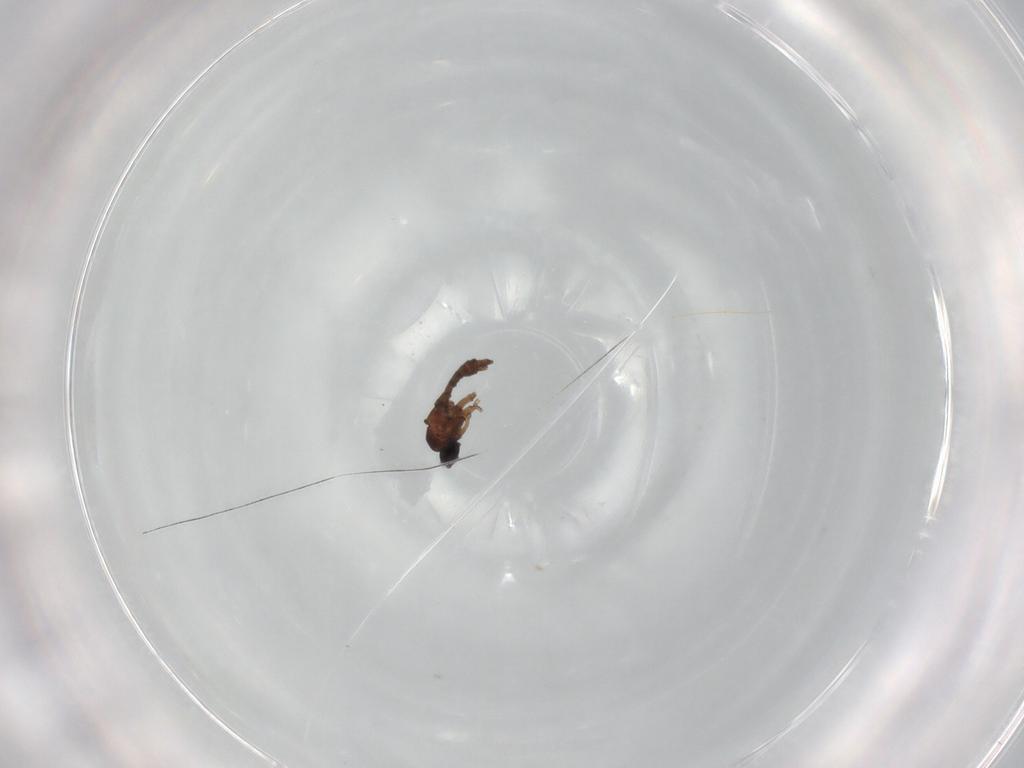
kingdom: Animalia
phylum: Arthropoda
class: Insecta
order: Diptera
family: Sciaridae
